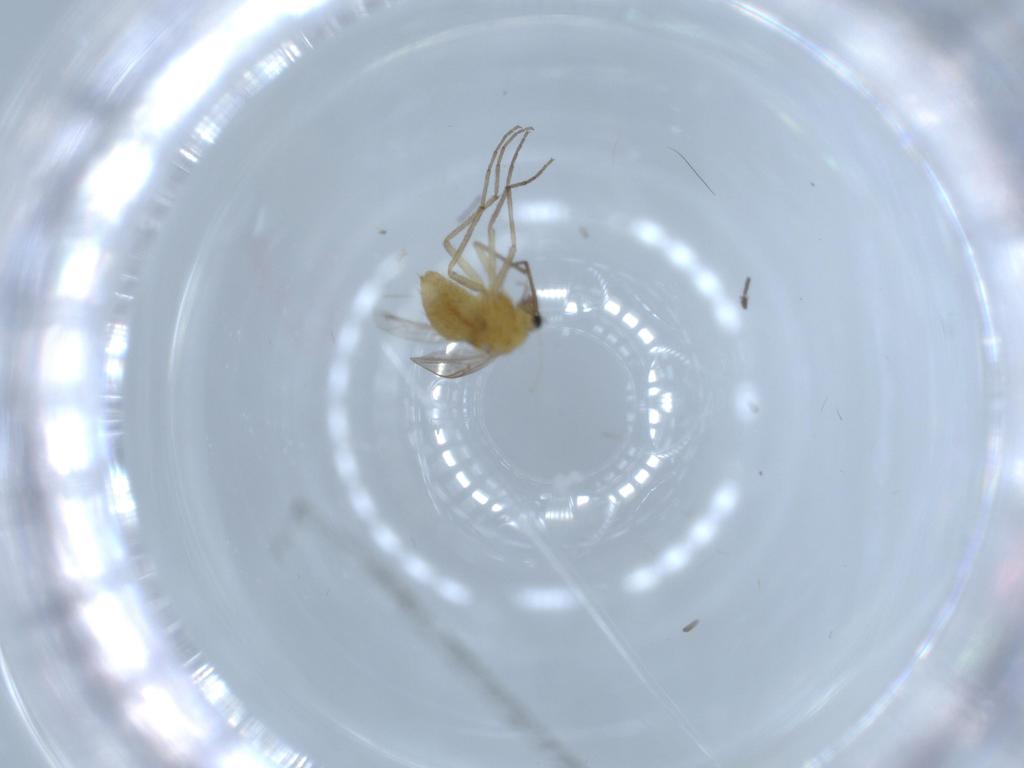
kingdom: Animalia
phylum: Arthropoda
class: Insecta
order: Diptera
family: Chironomidae
